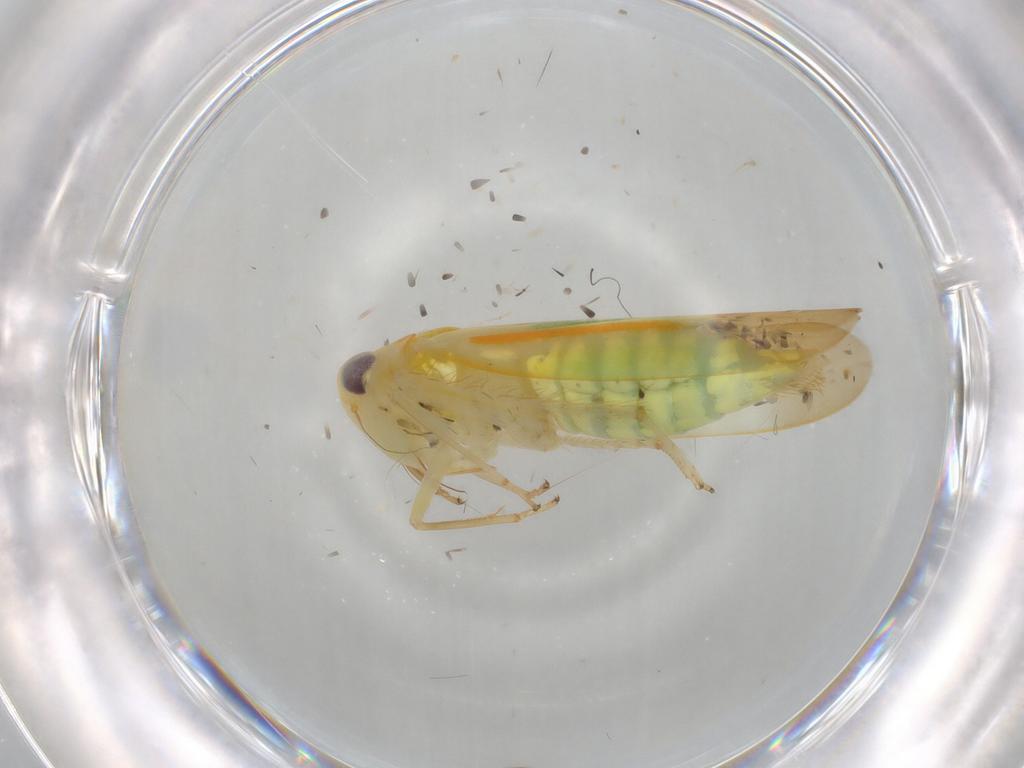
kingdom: Animalia
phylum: Arthropoda
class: Insecta
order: Hemiptera
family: Cicadellidae
